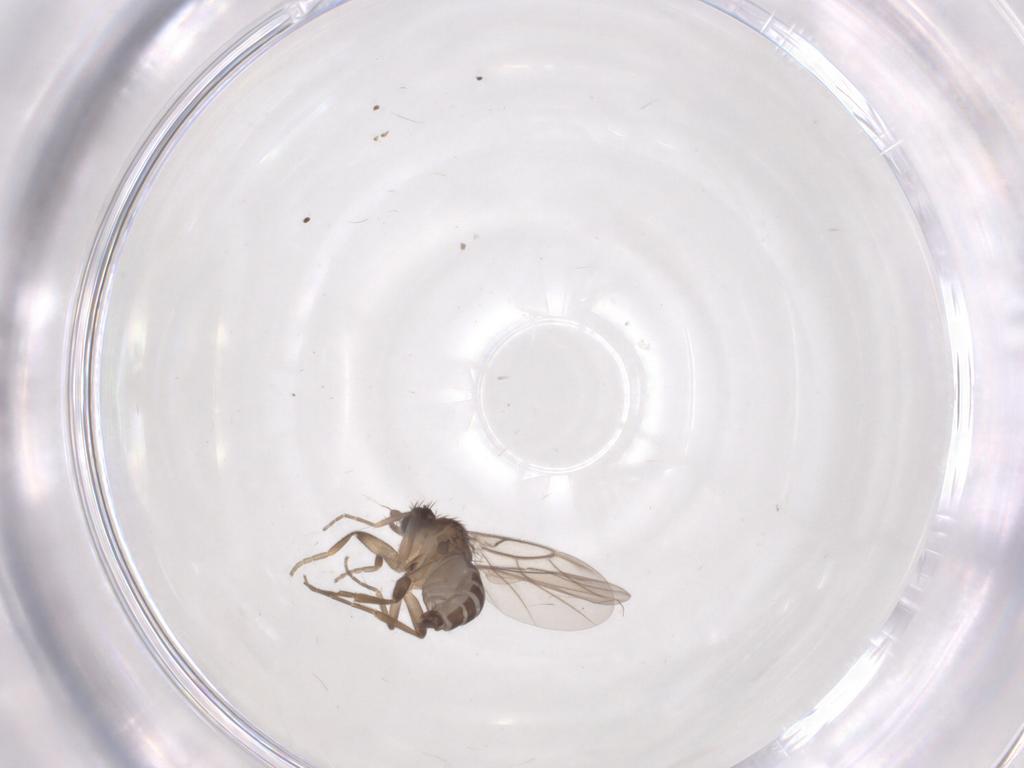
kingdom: Animalia
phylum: Arthropoda
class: Insecta
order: Diptera
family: Phoridae
